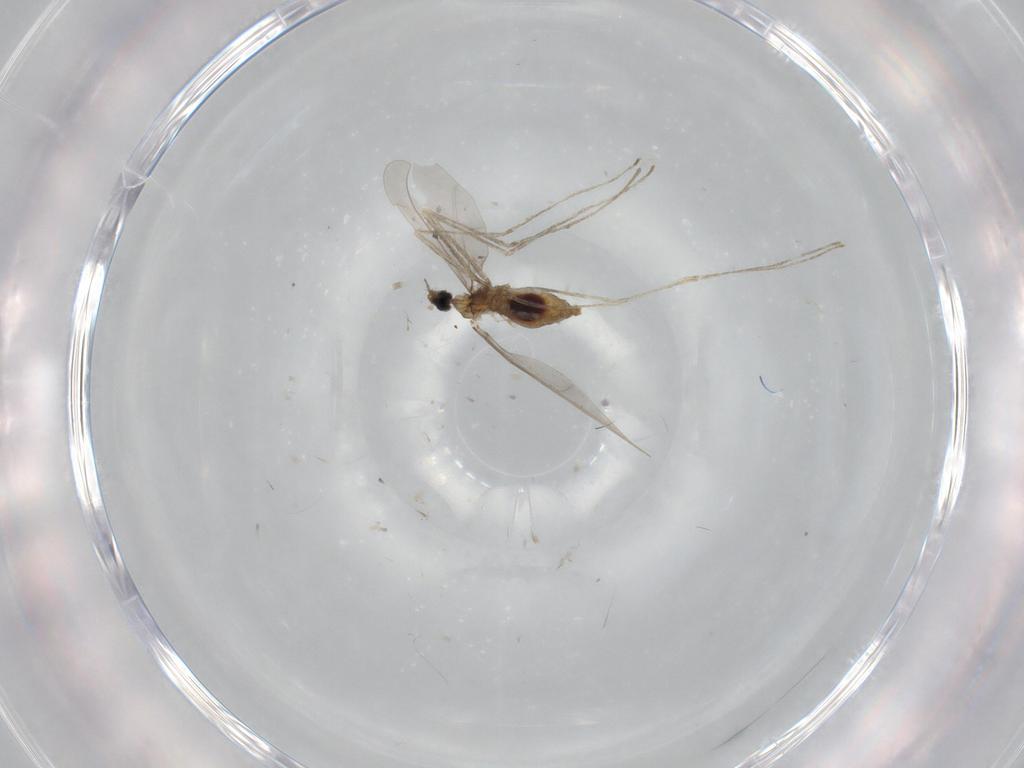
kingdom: Animalia
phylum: Arthropoda
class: Insecta
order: Diptera
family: Cecidomyiidae
